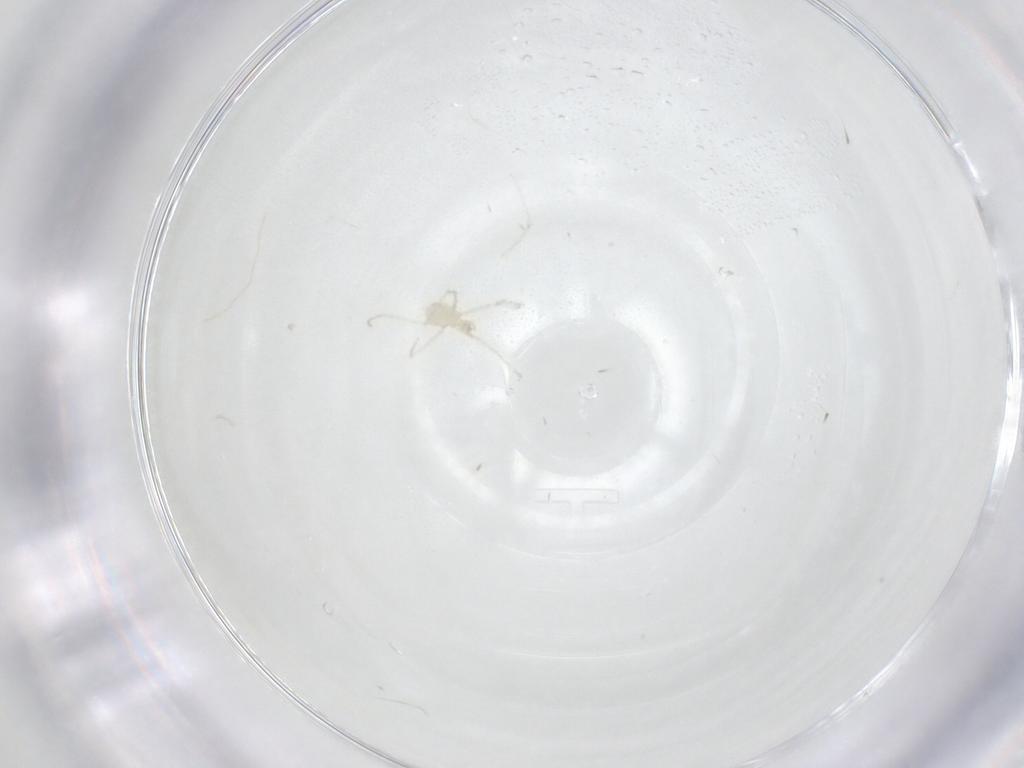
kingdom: Animalia
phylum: Arthropoda
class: Arachnida
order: Trombidiformes
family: Erythraeidae
